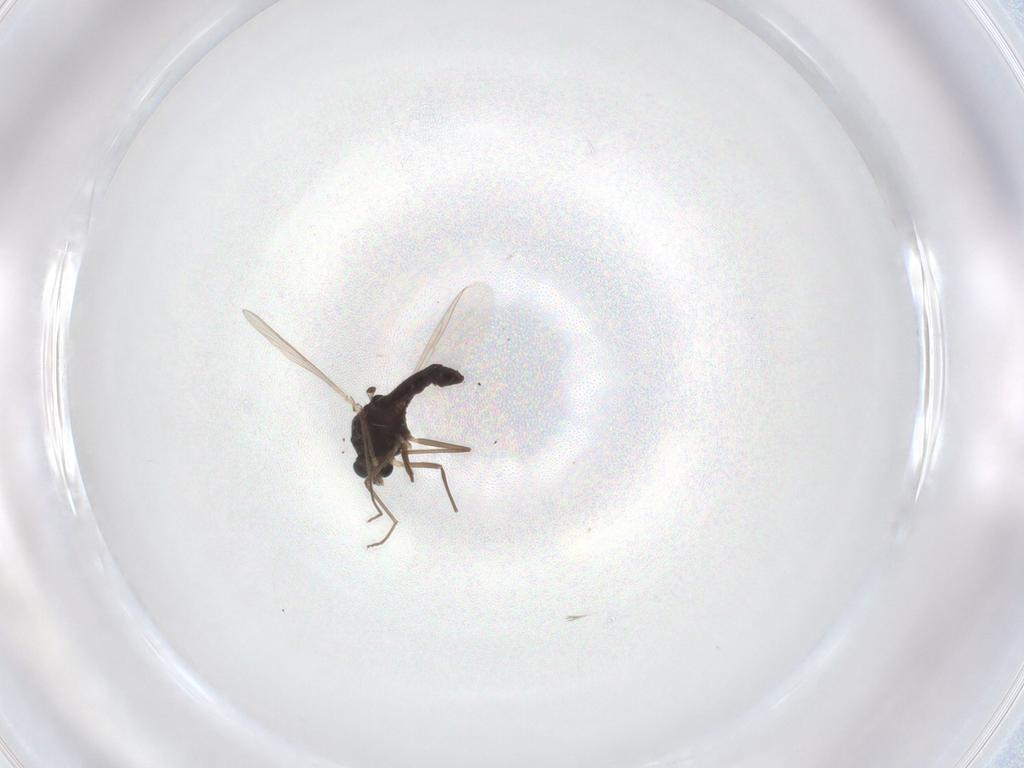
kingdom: Animalia
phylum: Arthropoda
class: Insecta
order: Diptera
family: Chironomidae
